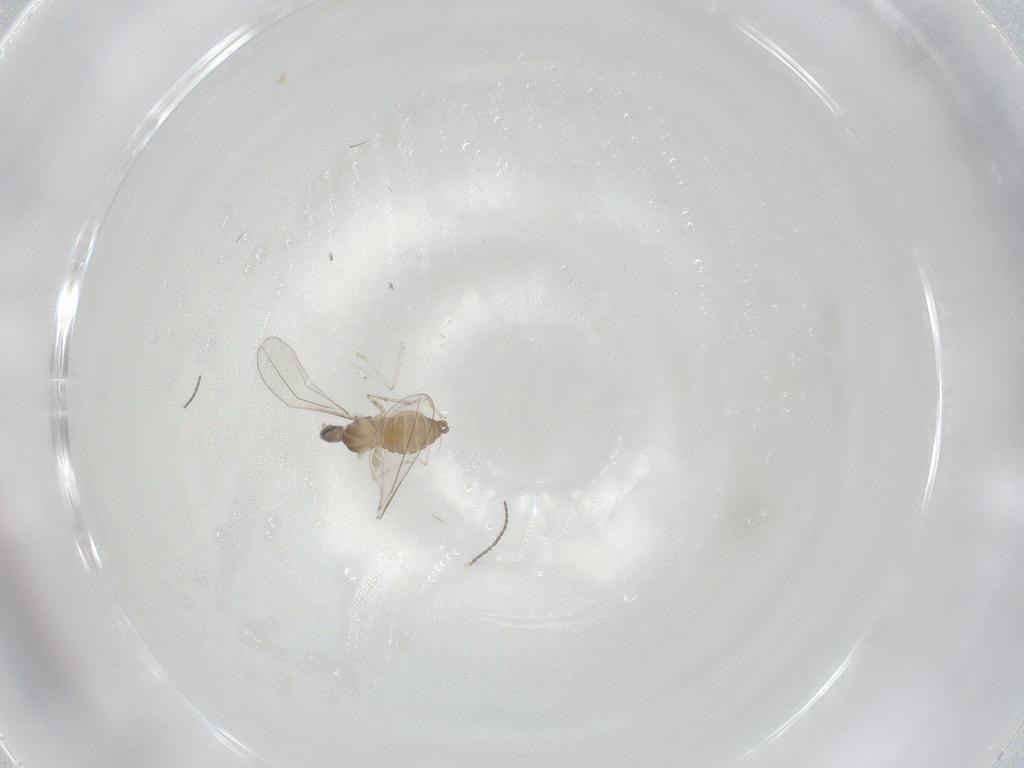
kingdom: Animalia
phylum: Arthropoda
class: Insecta
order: Diptera
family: Cecidomyiidae
